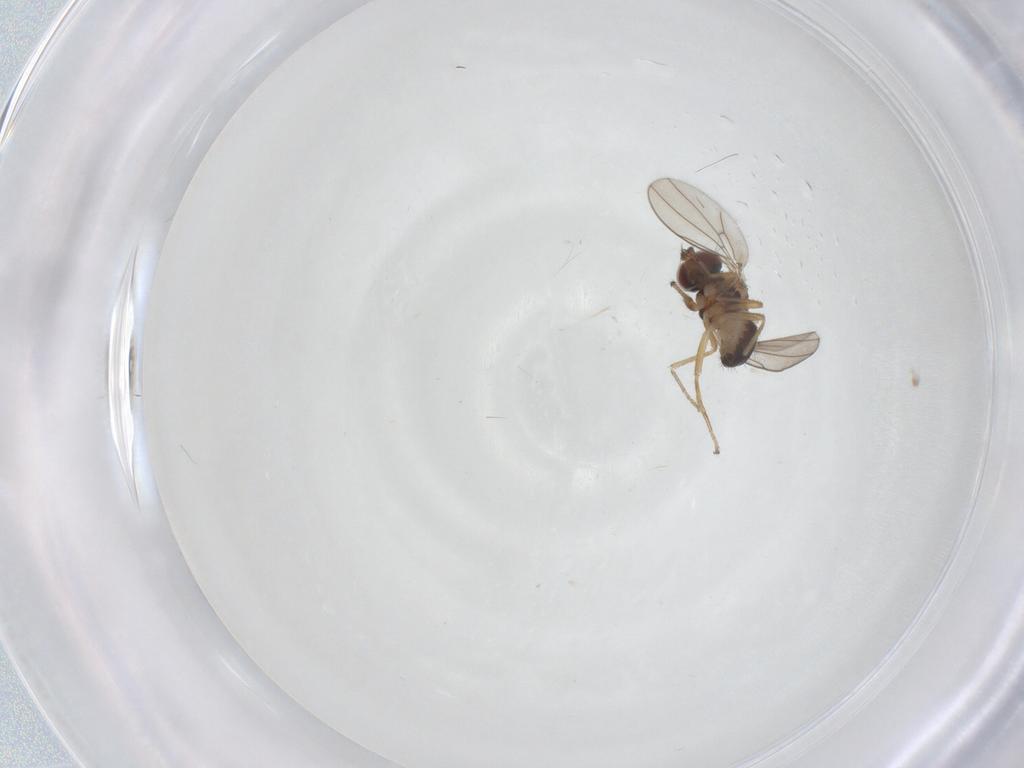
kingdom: Animalia
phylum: Arthropoda
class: Insecta
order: Diptera
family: Ephydridae
